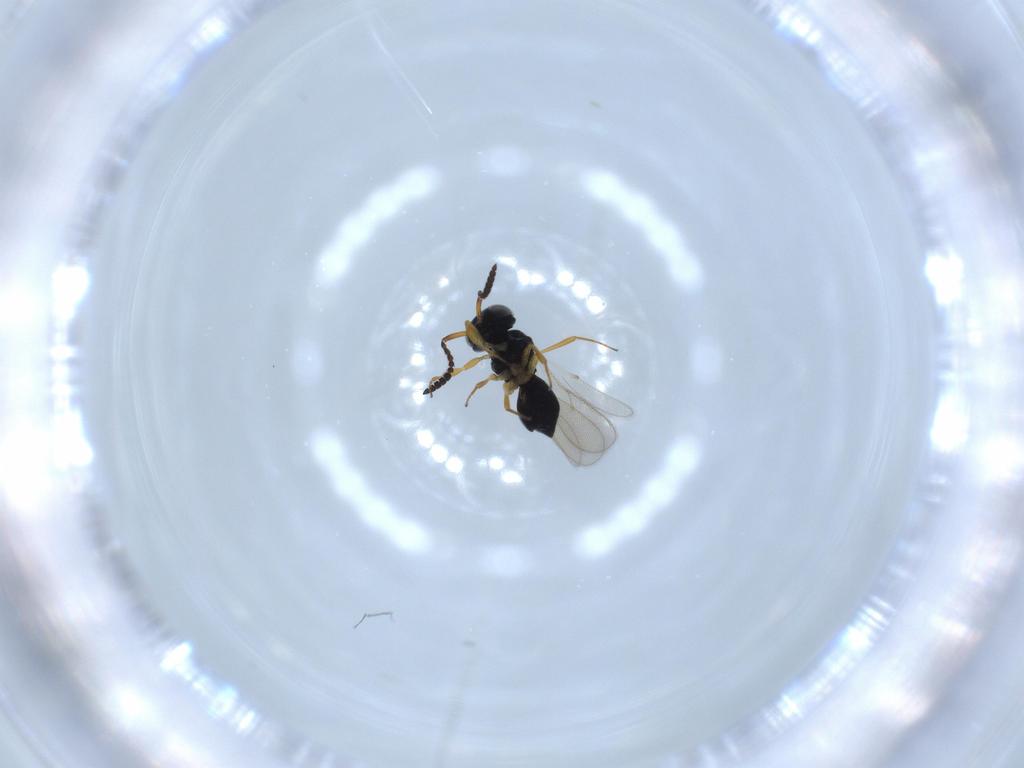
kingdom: Animalia
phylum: Arthropoda
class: Insecta
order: Hymenoptera
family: Scelionidae
